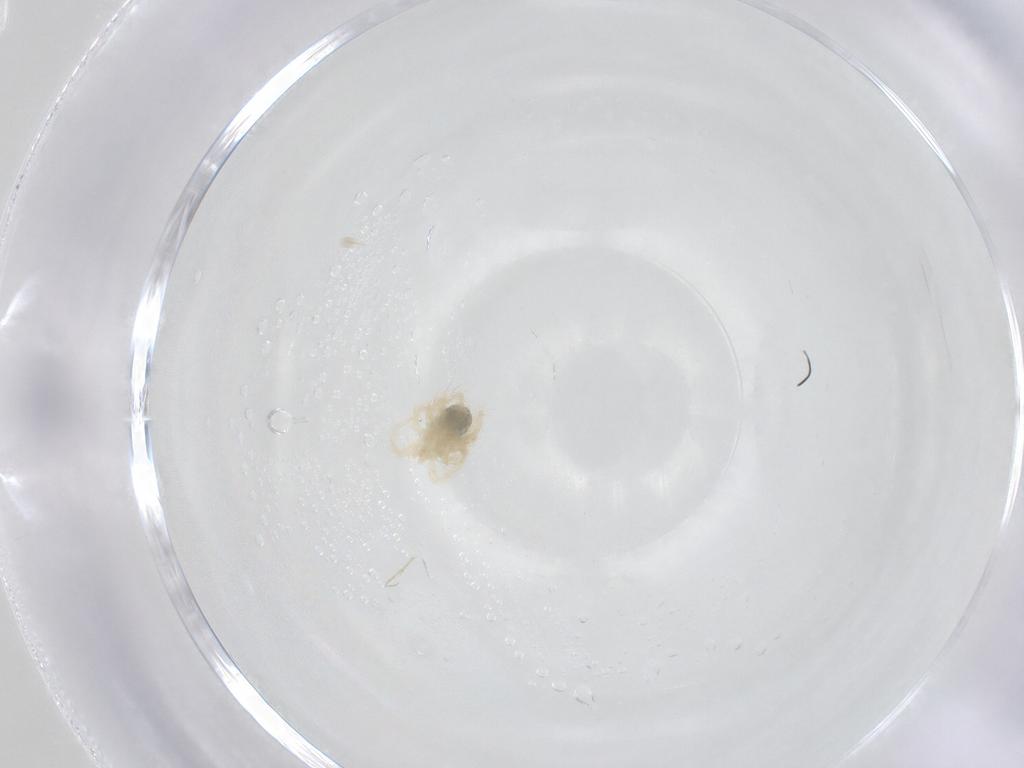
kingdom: Animalia
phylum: Arthropoda
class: Arachnida
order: Trombidiformes
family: Anystidae
